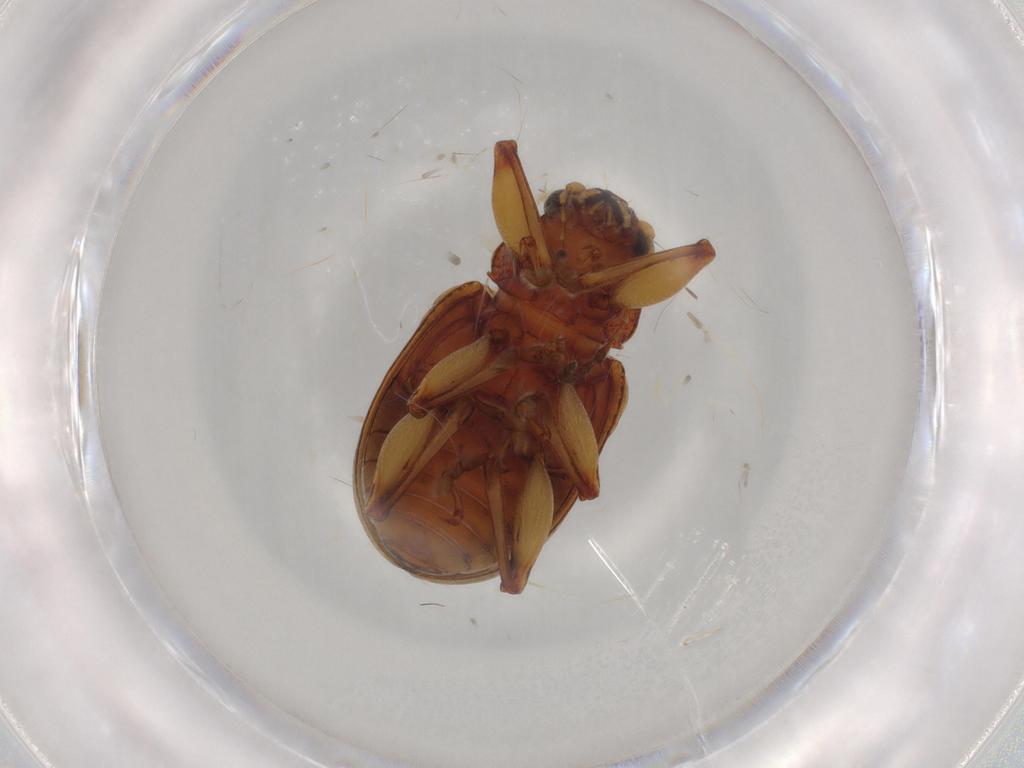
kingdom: Animalia
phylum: Arthropoda
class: Insecta
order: Coleoptera
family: Chrysomelidae
